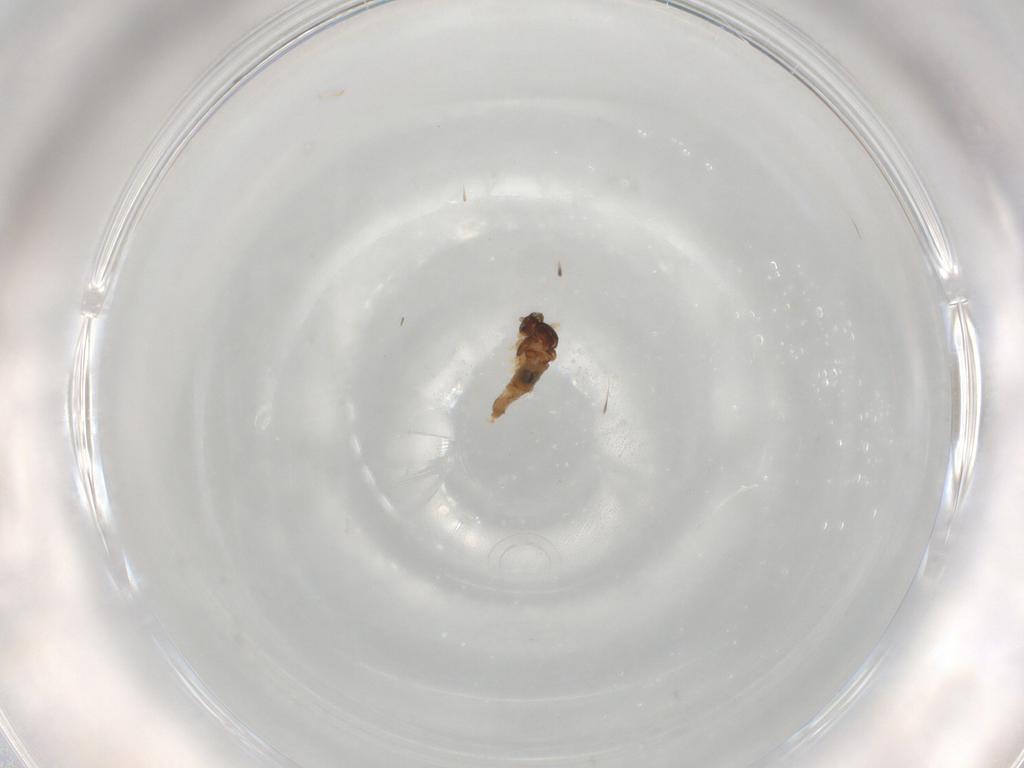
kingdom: Animalia
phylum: Arthropoda
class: Insecta
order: Diptera
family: Cecidomyiidae
